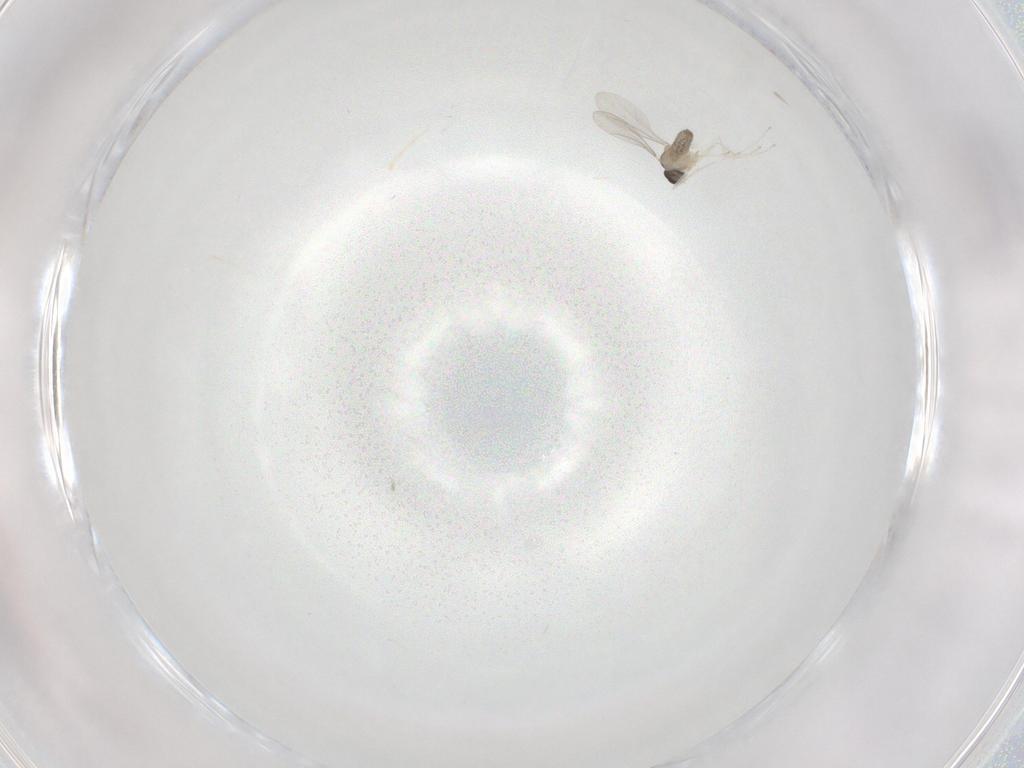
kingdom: Animalia
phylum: Arthropoda
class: Insecta
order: Diptera
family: Cecidomyiidae
